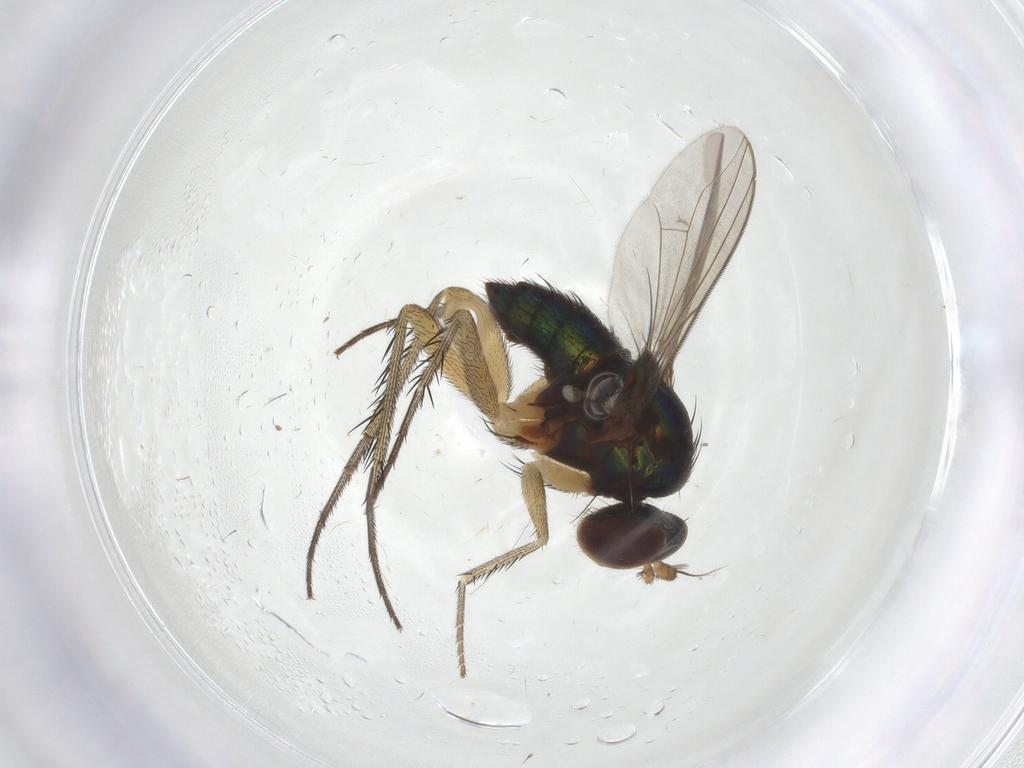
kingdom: Animalia
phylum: Arthropoda
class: Insecta
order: Diptera
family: Dolichopodidae
